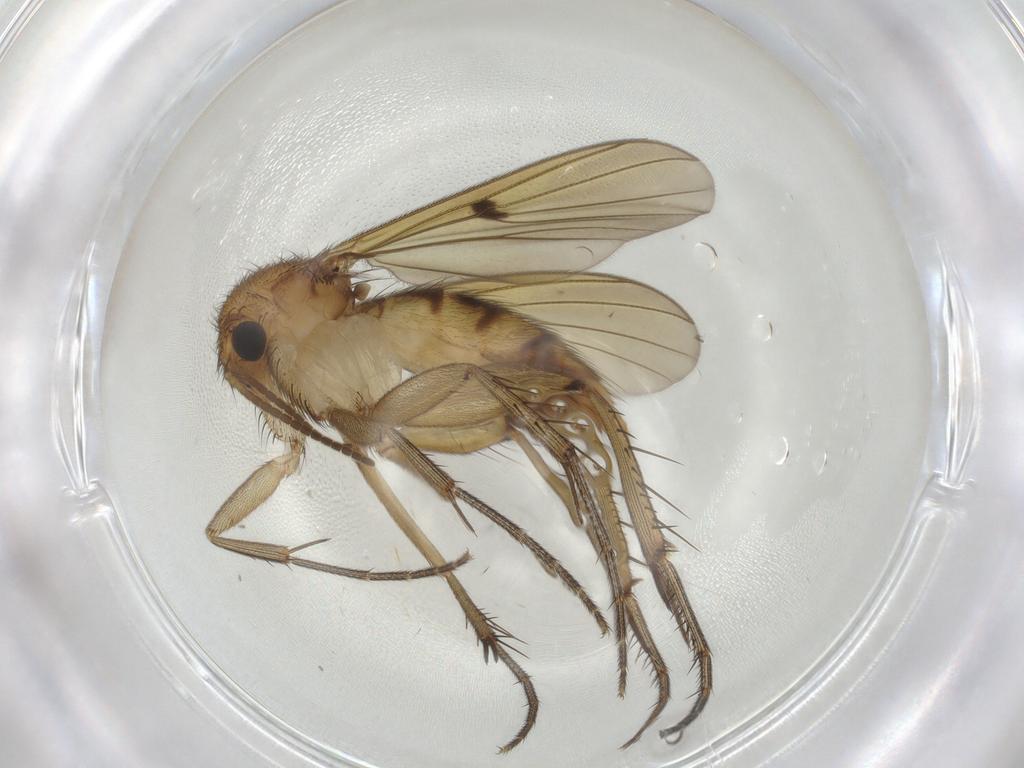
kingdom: Animalia
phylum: Arthropoda
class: Insecta
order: Diptera
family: Mycetophilidae
